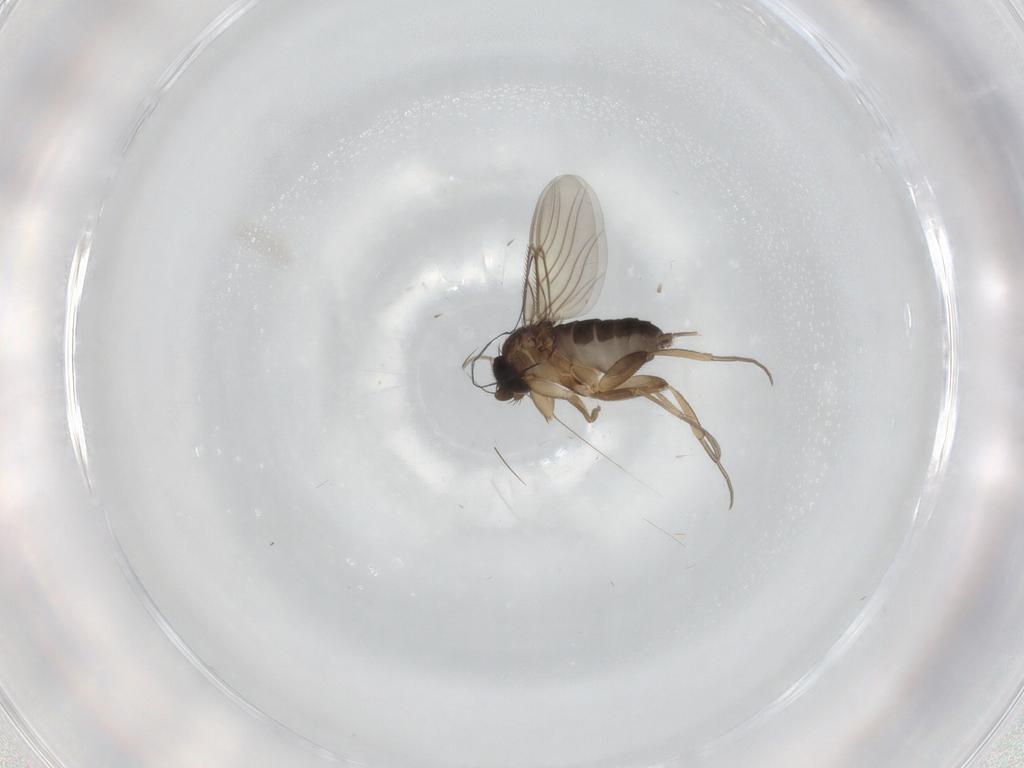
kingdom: Animalia
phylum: Arthropoda
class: Insecta
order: Diptera
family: Phoridae
